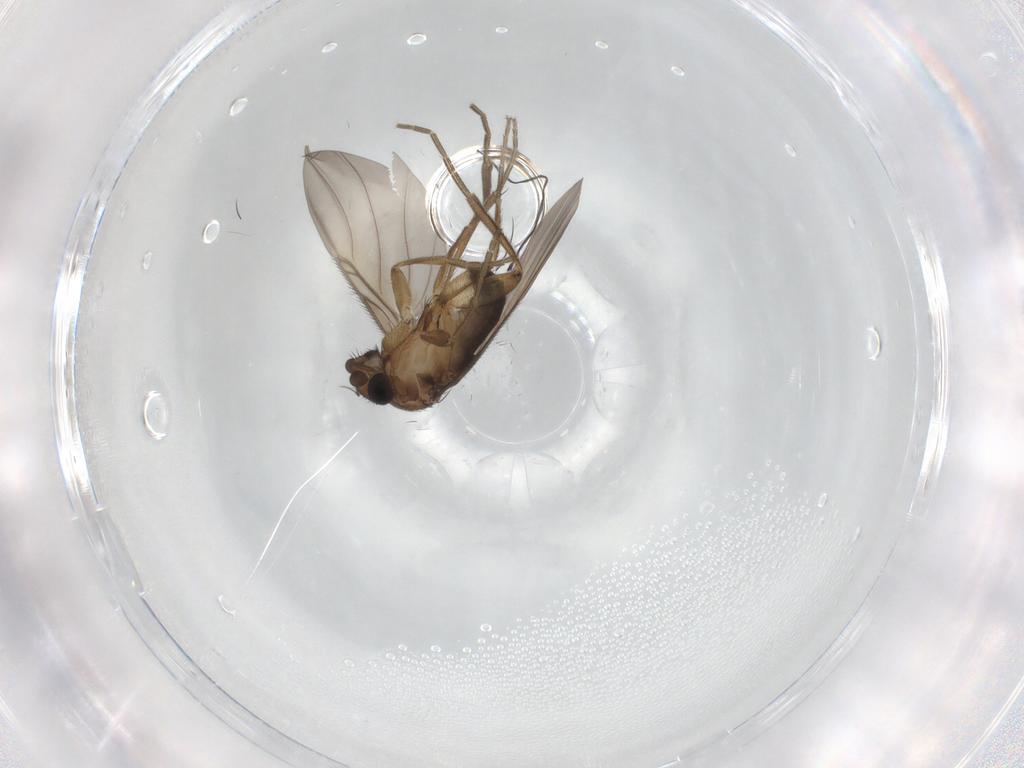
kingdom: Animalia
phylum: Arthropoda
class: Insecta
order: Diptera
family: Phoridae
